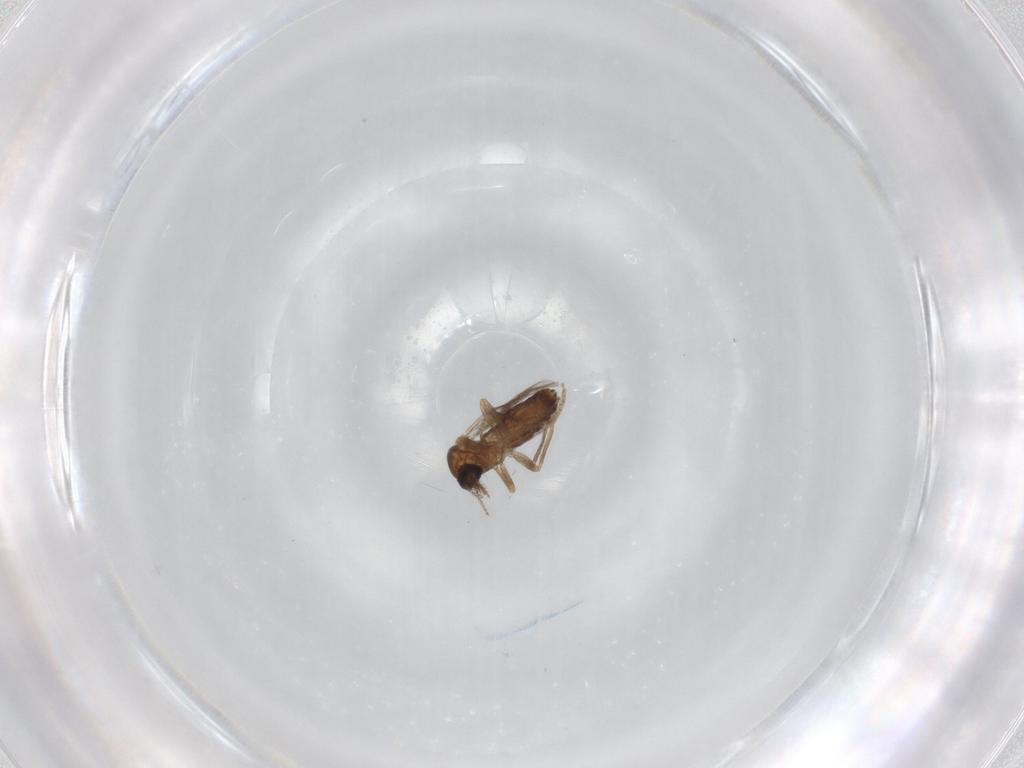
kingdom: Animalia
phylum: Arthropoda
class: Insecta
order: Diptera
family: Ceratopogonidae
